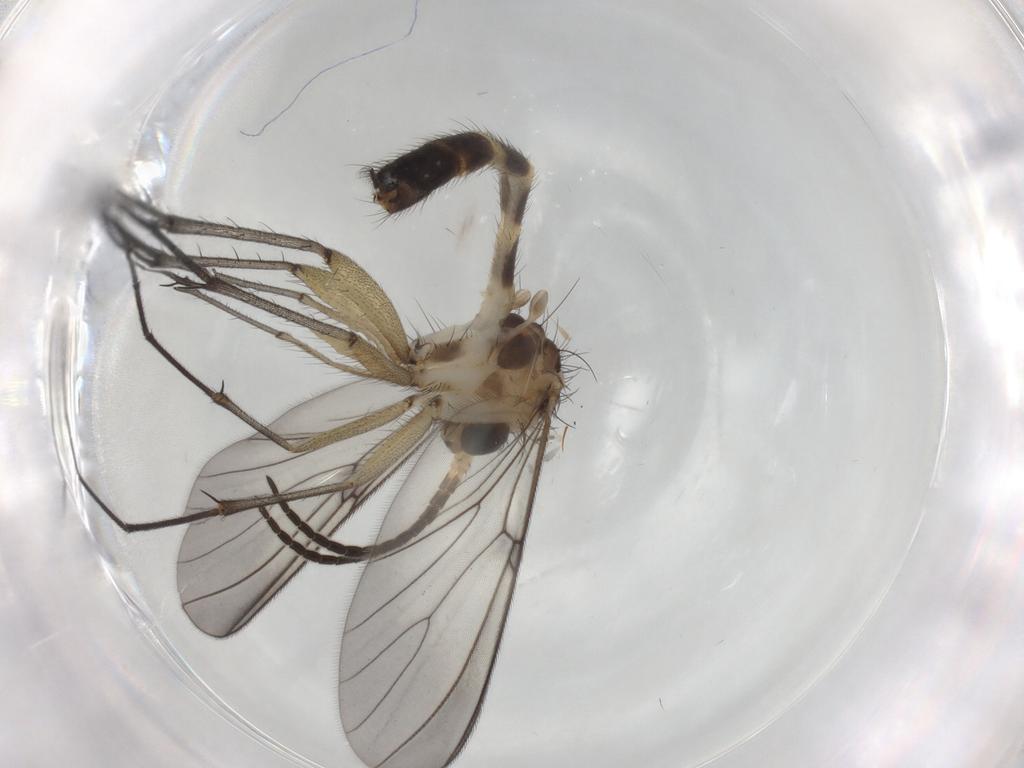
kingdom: Animalia
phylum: Arthropoda
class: Insecta
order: Diptera
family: Mycetophilidae
